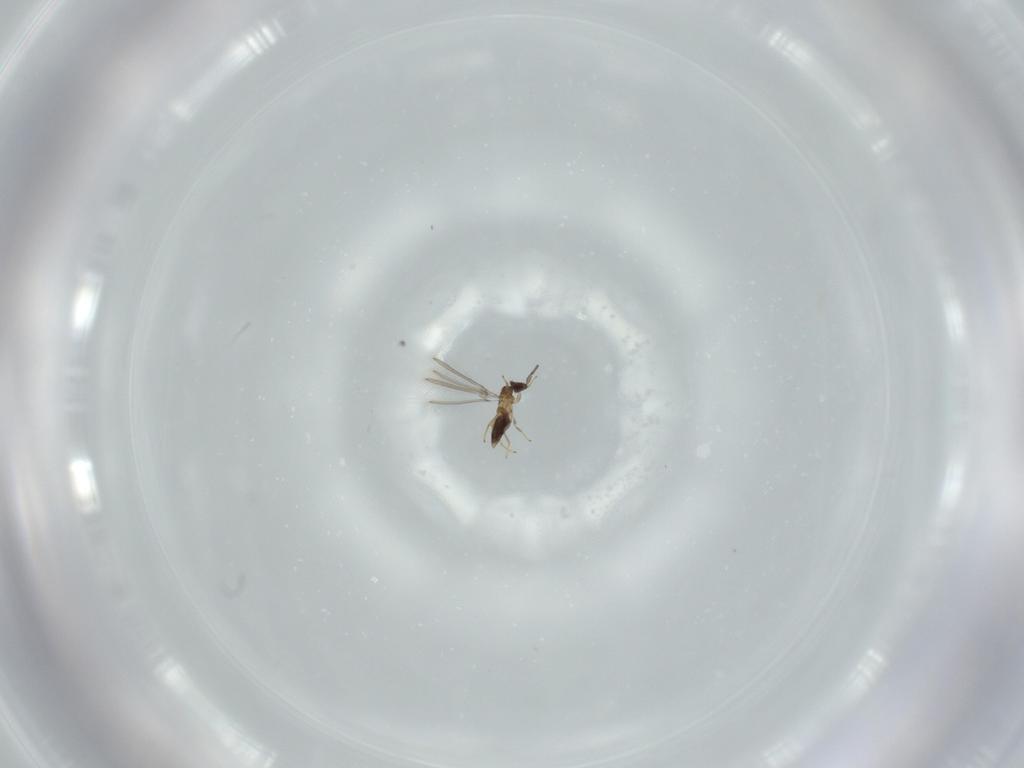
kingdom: Animalia
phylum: Arthropoda
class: Insecta
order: Hymenoptera
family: Mymaridae
